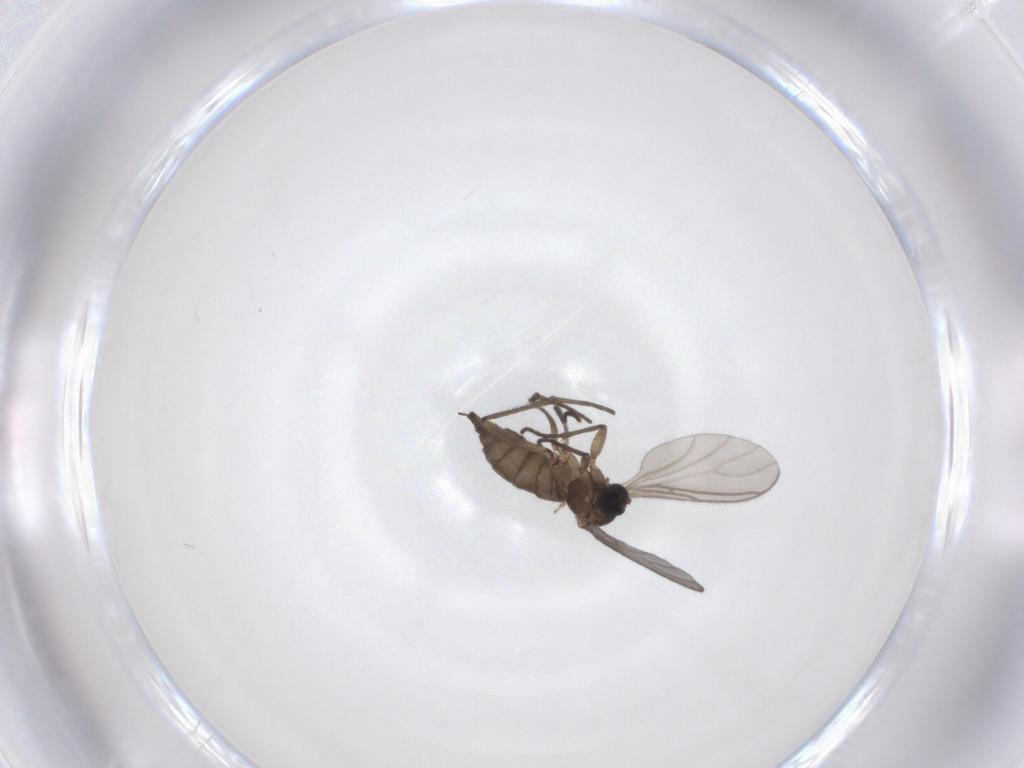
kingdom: Animalia
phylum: Arthropoda
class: Insecta
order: Diptera
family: Sciaridae
